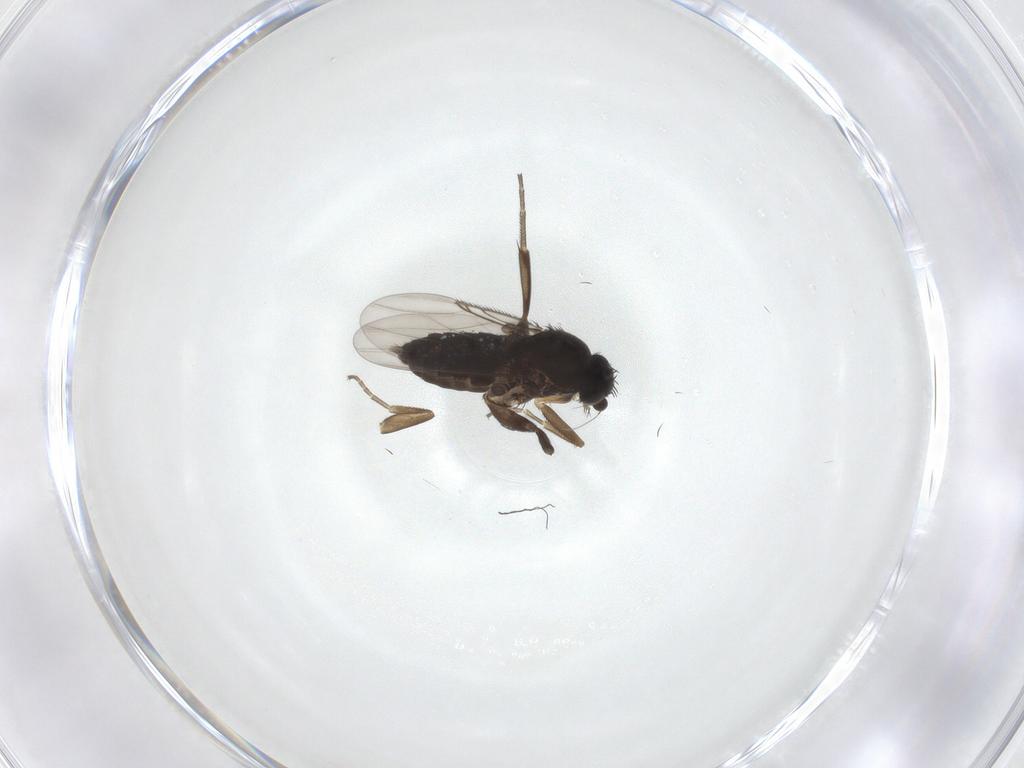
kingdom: Animalia
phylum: Arthropoda
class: Insecta
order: Diptera
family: Phoridae
